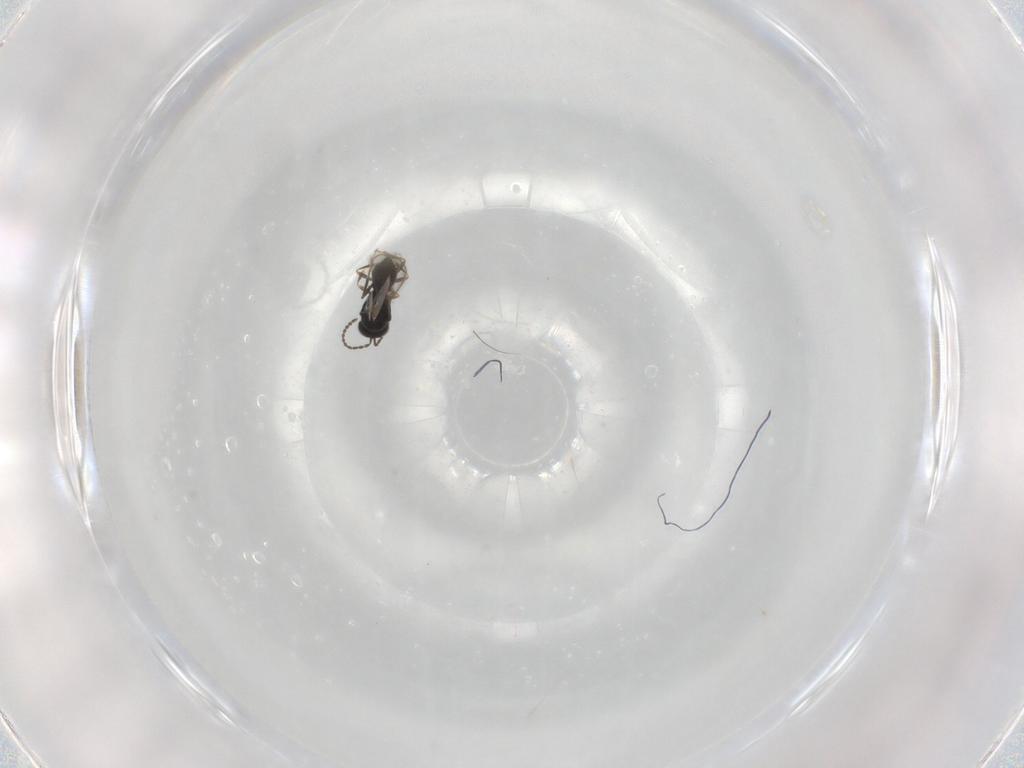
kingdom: Animalia
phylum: Arthropoda
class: Insecta
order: Hymenoptera
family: Scelionidae
